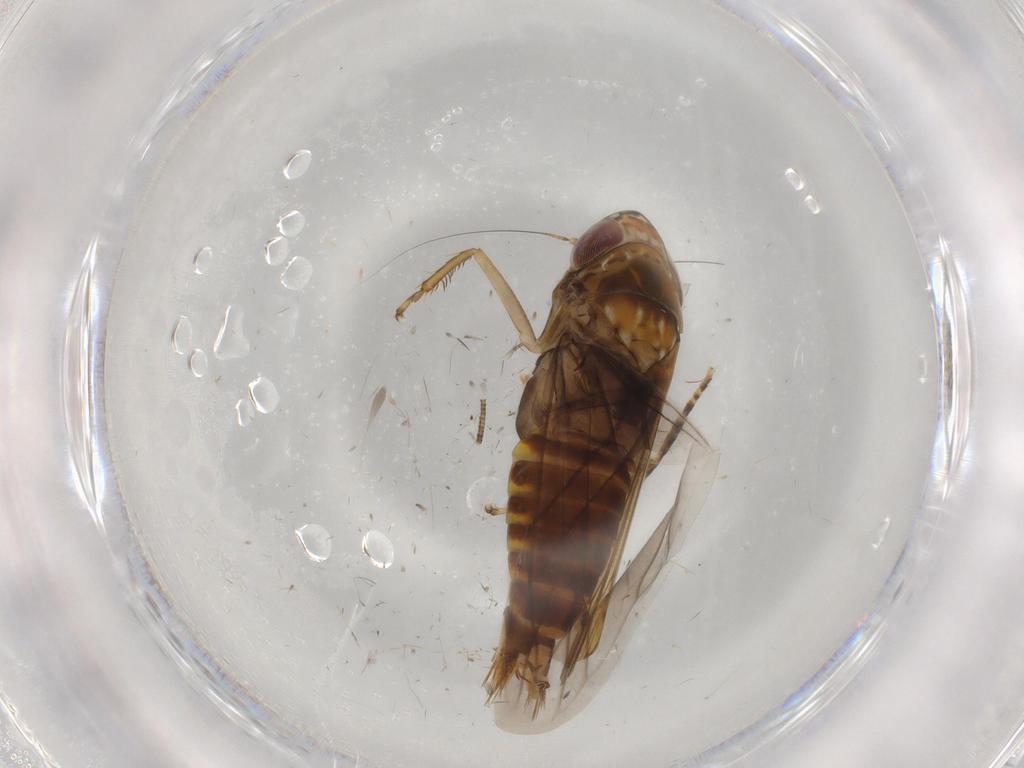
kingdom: Animalia
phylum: Arthropoda
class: Insecta
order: Hemiptera
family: Cicadellidae
